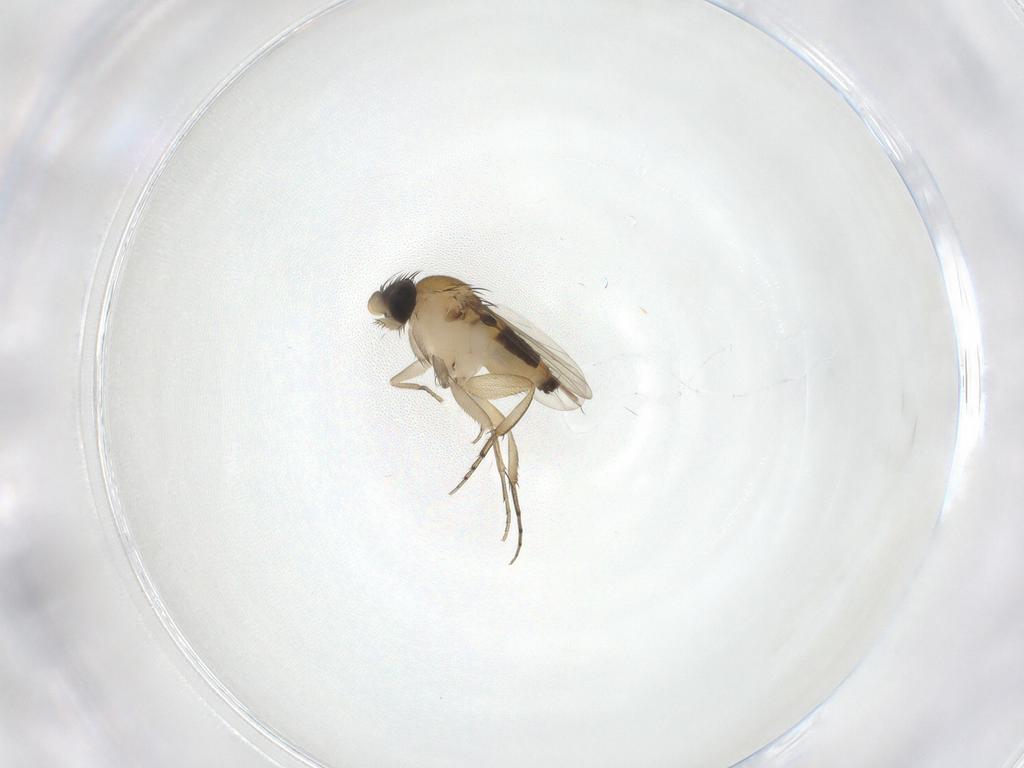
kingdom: Animalia
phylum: Arthropoda
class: Insecta
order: Diptera
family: Phoridae
